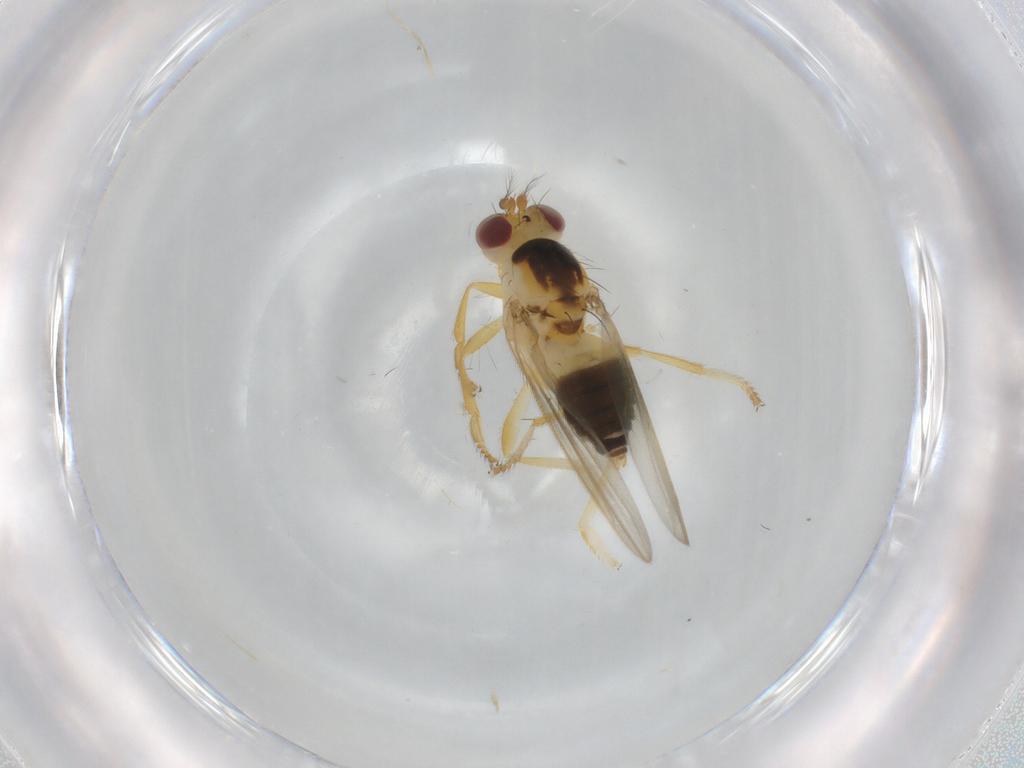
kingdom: Animalia
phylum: Arthropoda
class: Insecta
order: Diptera
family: Periscelididae
